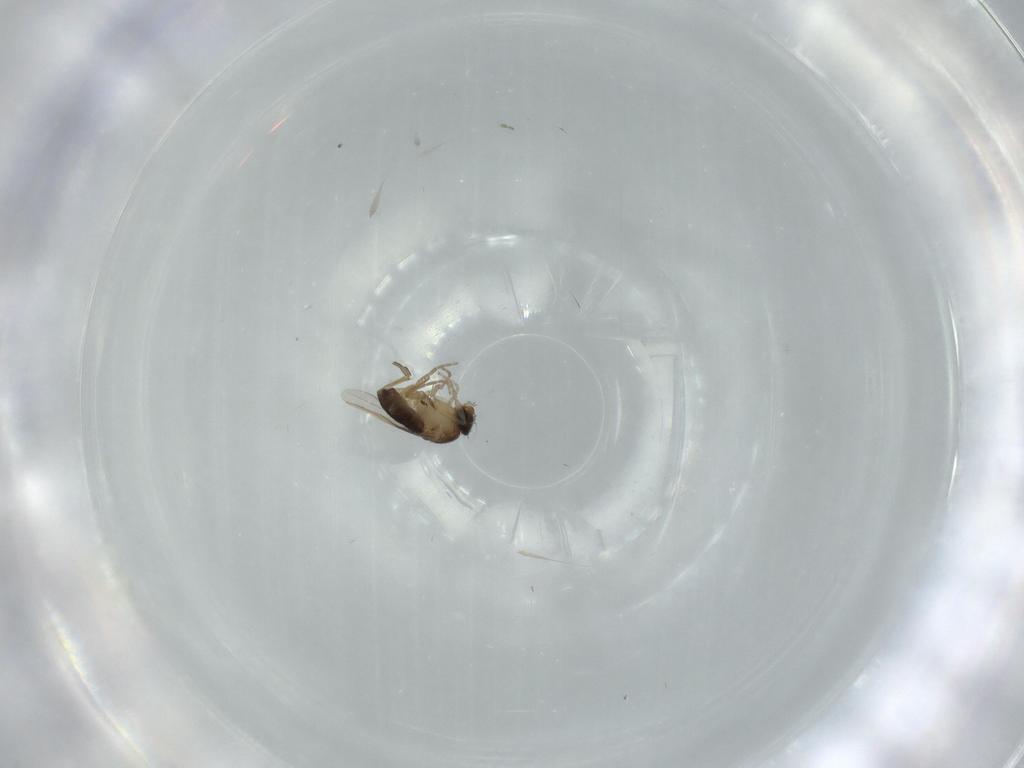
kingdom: Animalia
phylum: Arthropoda
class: Insecta
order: Diptera
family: Phoridae
